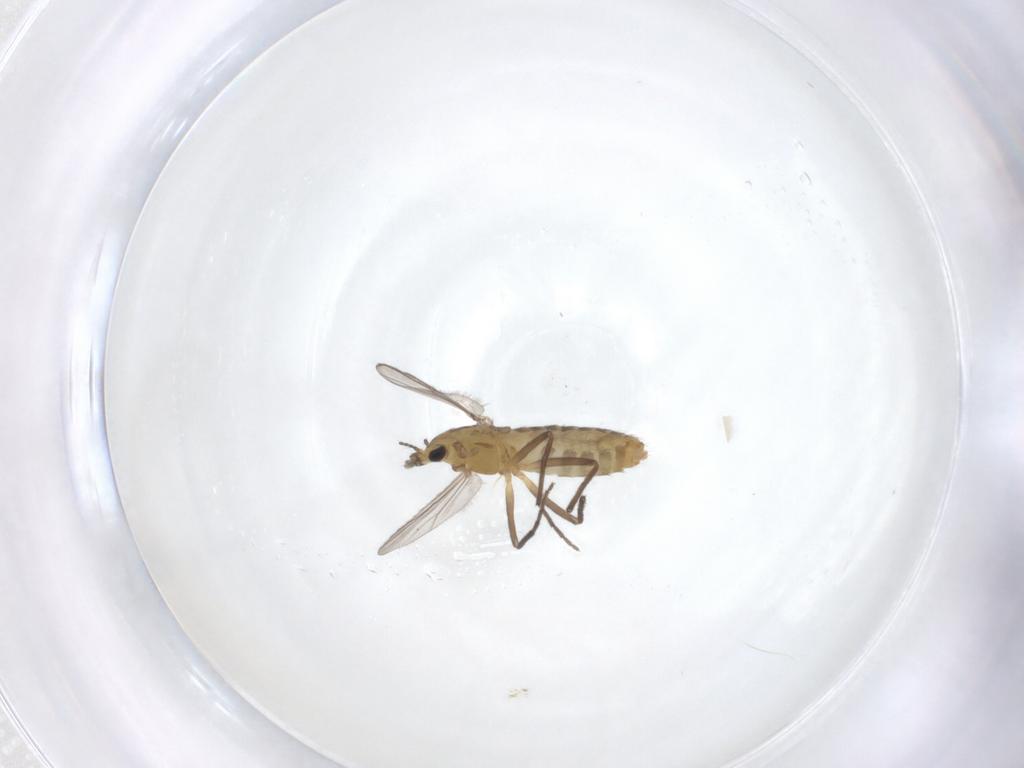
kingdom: Animalia
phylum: Arthropoda
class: Insecta
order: Diptera
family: Chironomidae
